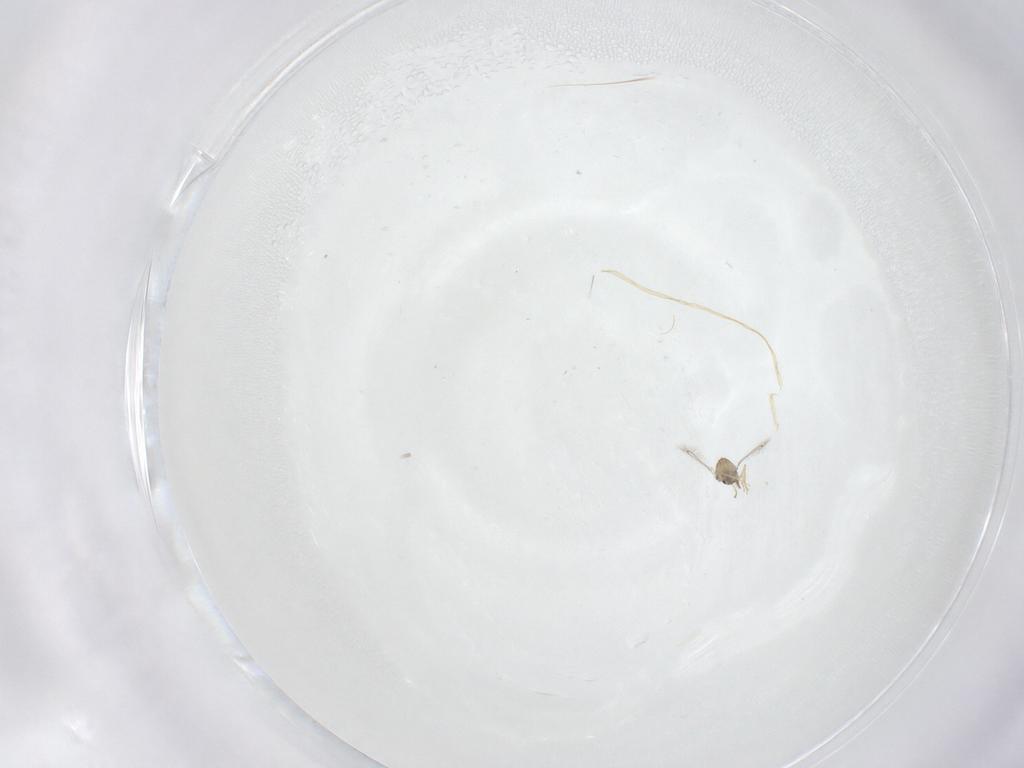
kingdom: Animalia
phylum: Arthropoda
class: Insecta
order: Hymenoptera
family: Mymaridae
